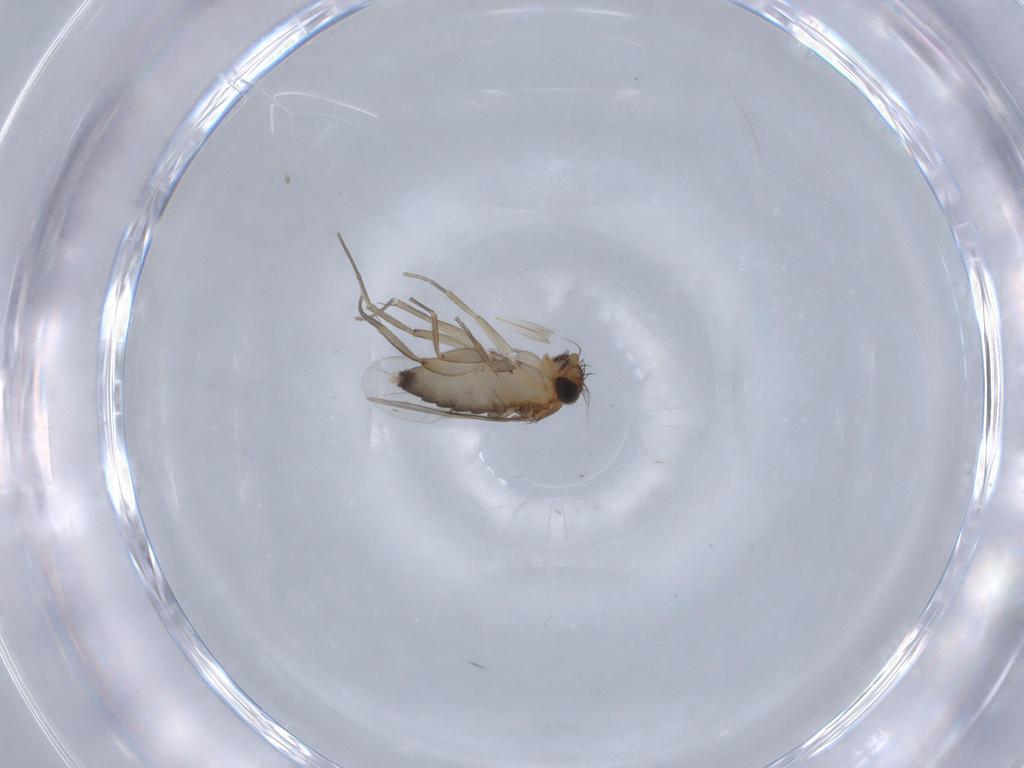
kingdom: Animalia
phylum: Arthropoda
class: Insecta
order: Diptera
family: Phoridae
